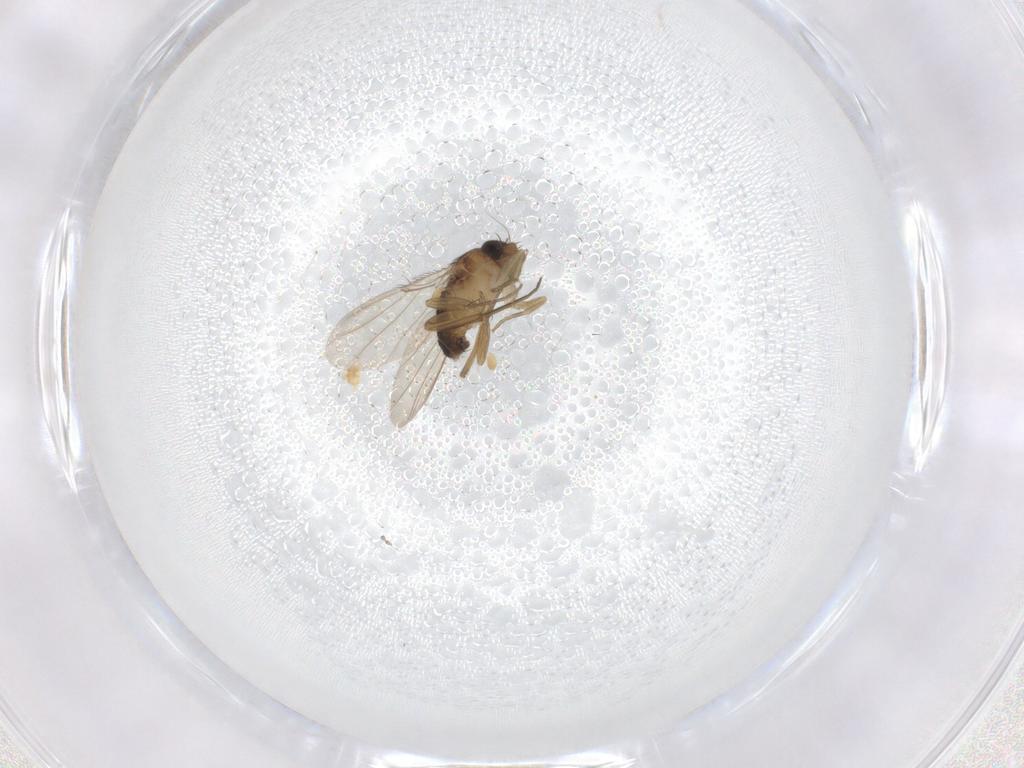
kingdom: Animalia
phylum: Arthropoda
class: Insecta
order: Diptera
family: Phoridae
